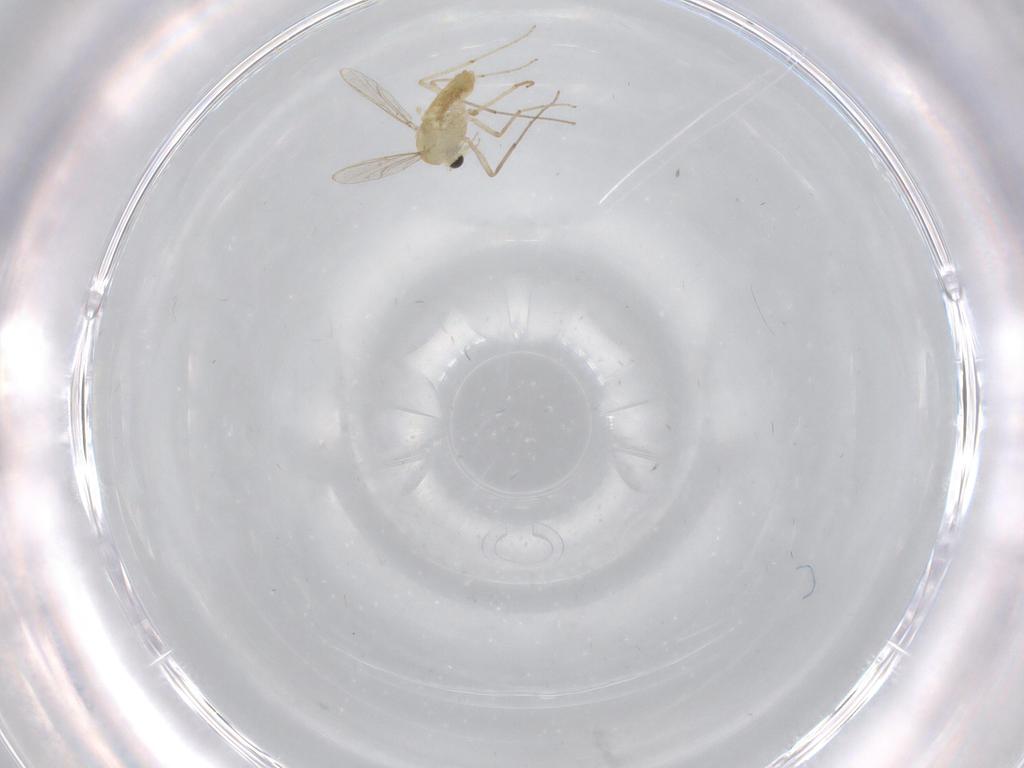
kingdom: Animalia
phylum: Arthropoda
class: Insecta
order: Diptera
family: Chironomidae
